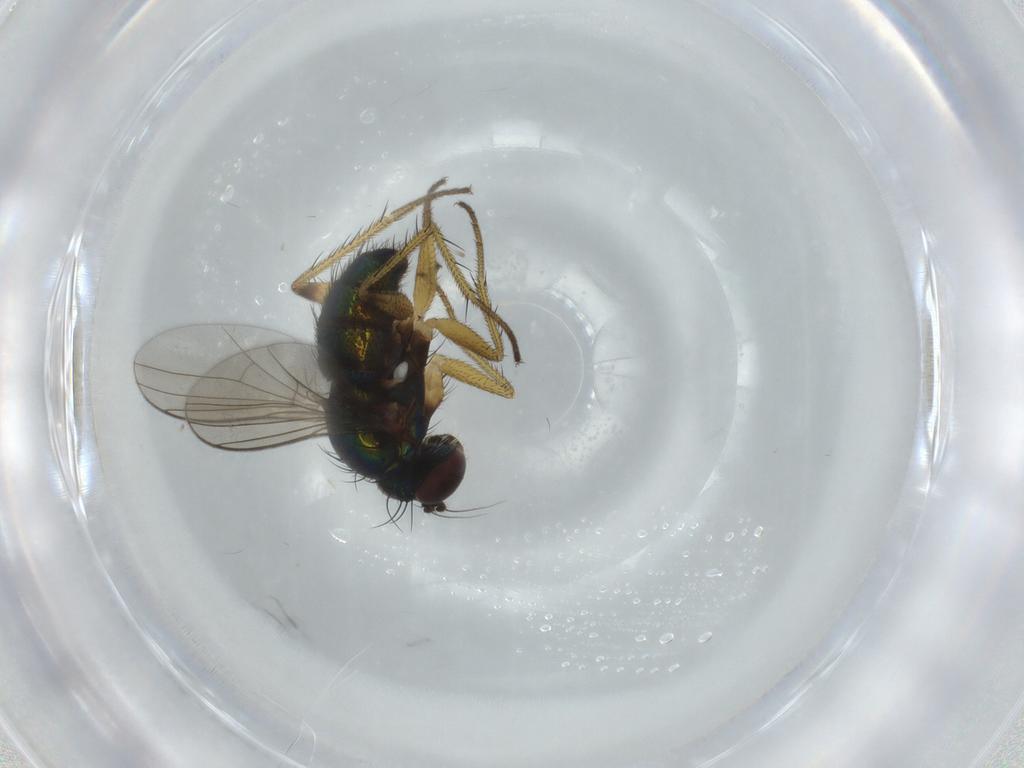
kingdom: Animalia
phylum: Arthropoda
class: Insecta
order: Diptera
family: Dolichopodidae
